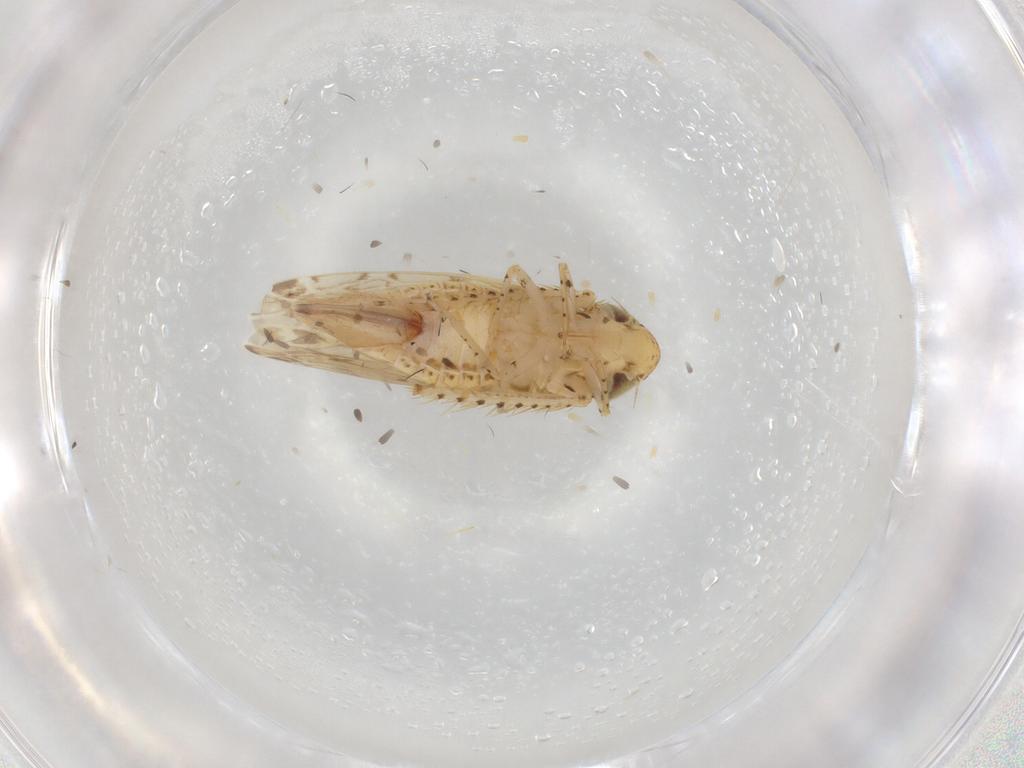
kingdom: Animalia
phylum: Arthropoda
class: Insecta
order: Hemiptera
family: Cicadellidae
